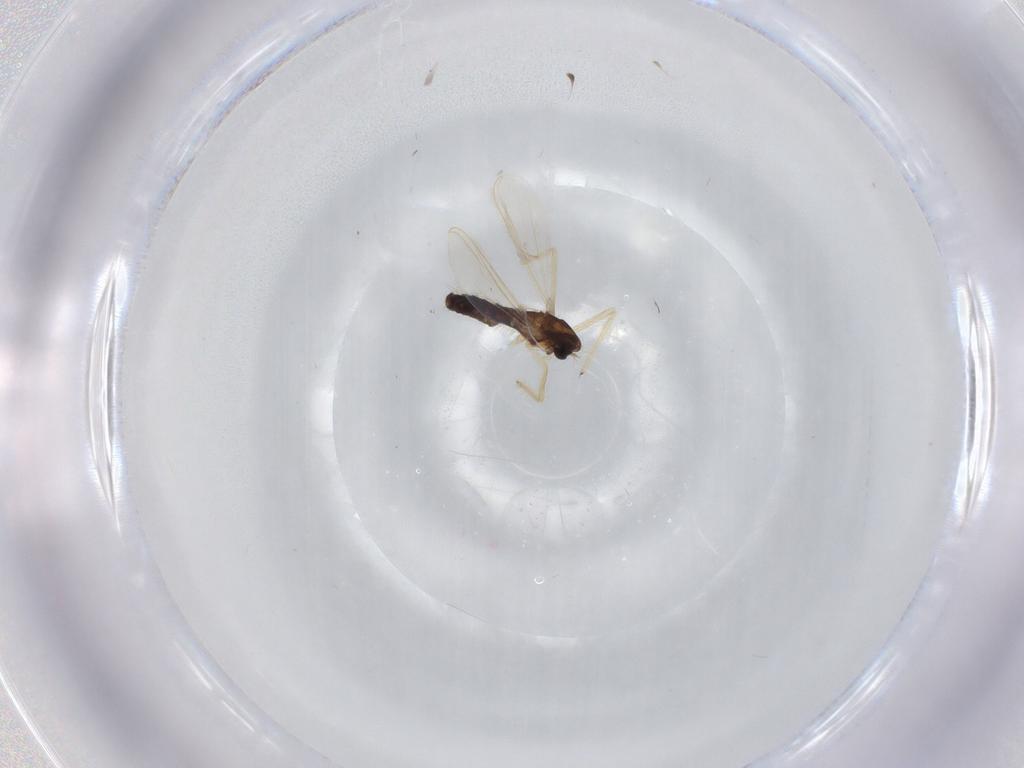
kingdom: Animalia
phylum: Arthropoda
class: Insecta
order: Diptera
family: Chironomidae
